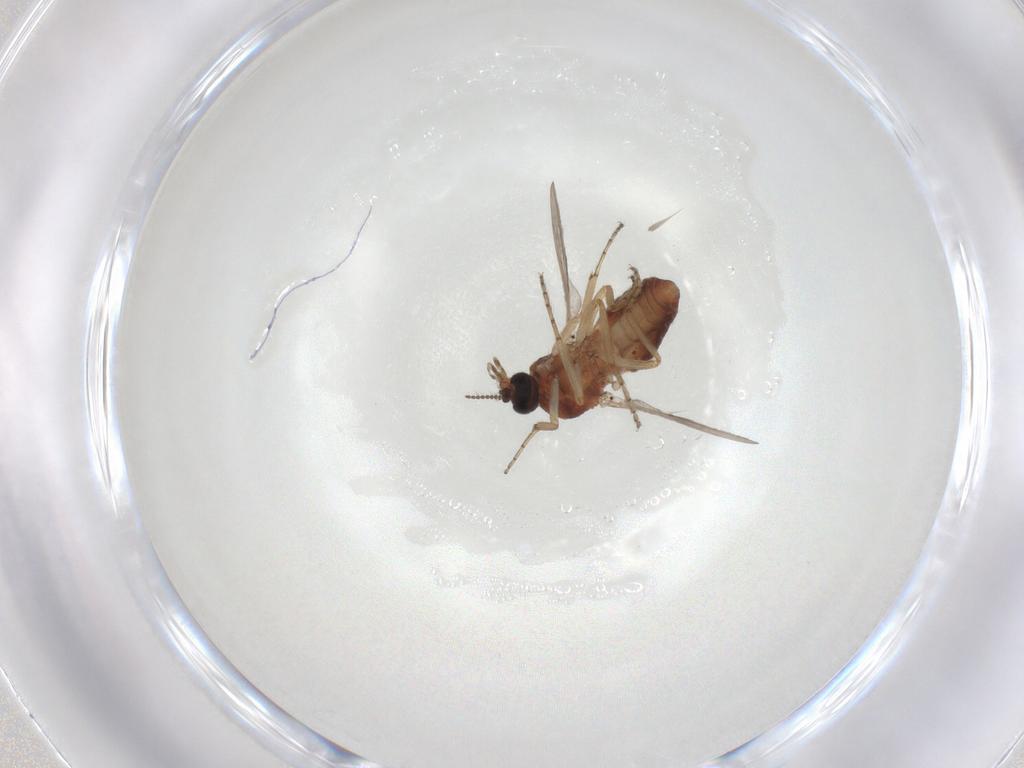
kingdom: Animalia
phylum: Arthropoda
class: Insecta
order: Diptera
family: Ceratopogonidae
